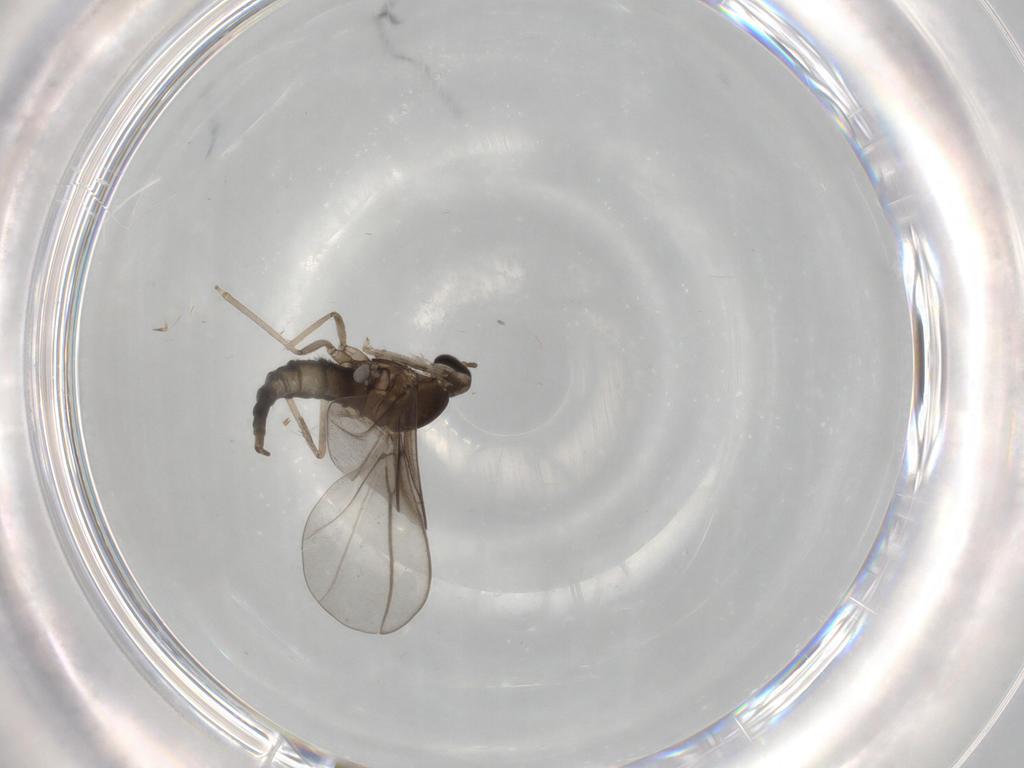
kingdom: Animalia
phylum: Arthropoda
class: Insecta
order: Diptera
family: Cecidomyiidae
